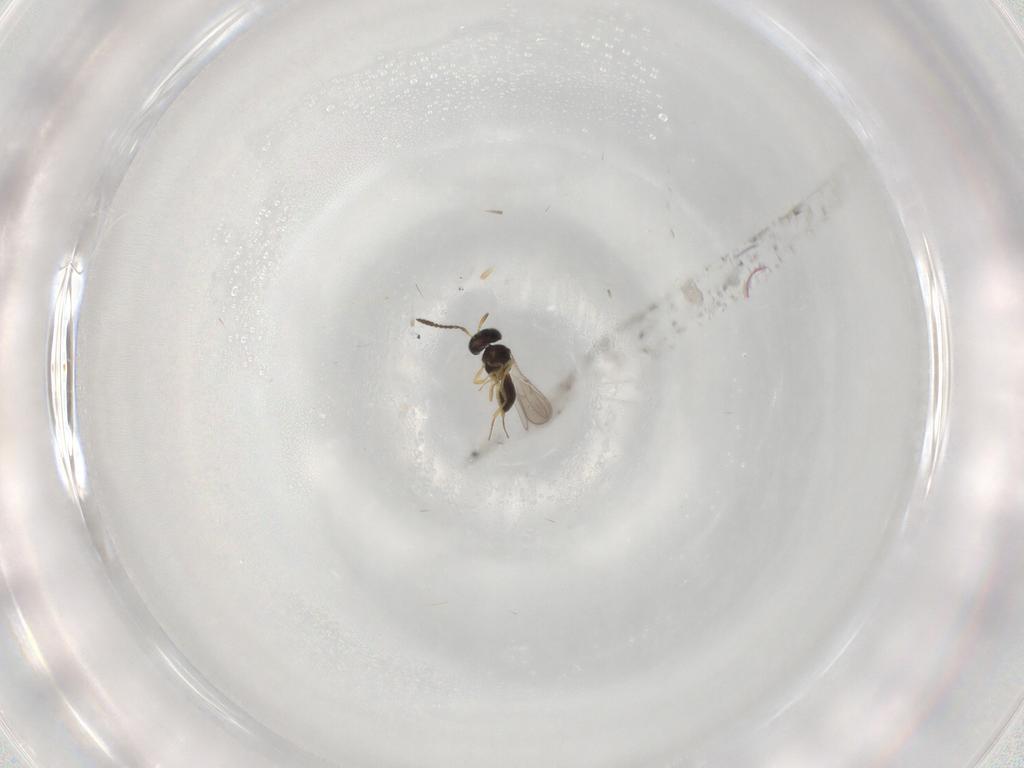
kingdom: Animalia
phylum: Arthropoda
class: Insecta
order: Hymenoptera
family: Scelionidae
